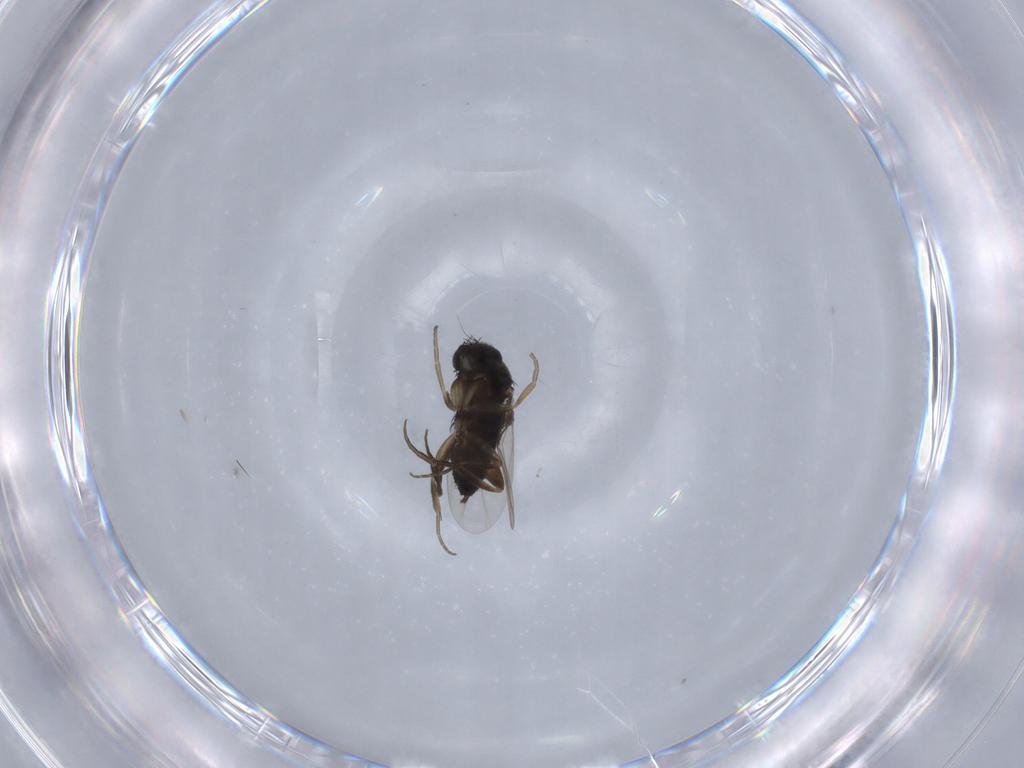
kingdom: Animalia
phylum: Arthropoda
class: Insecta
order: Diptera
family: Phoridae
